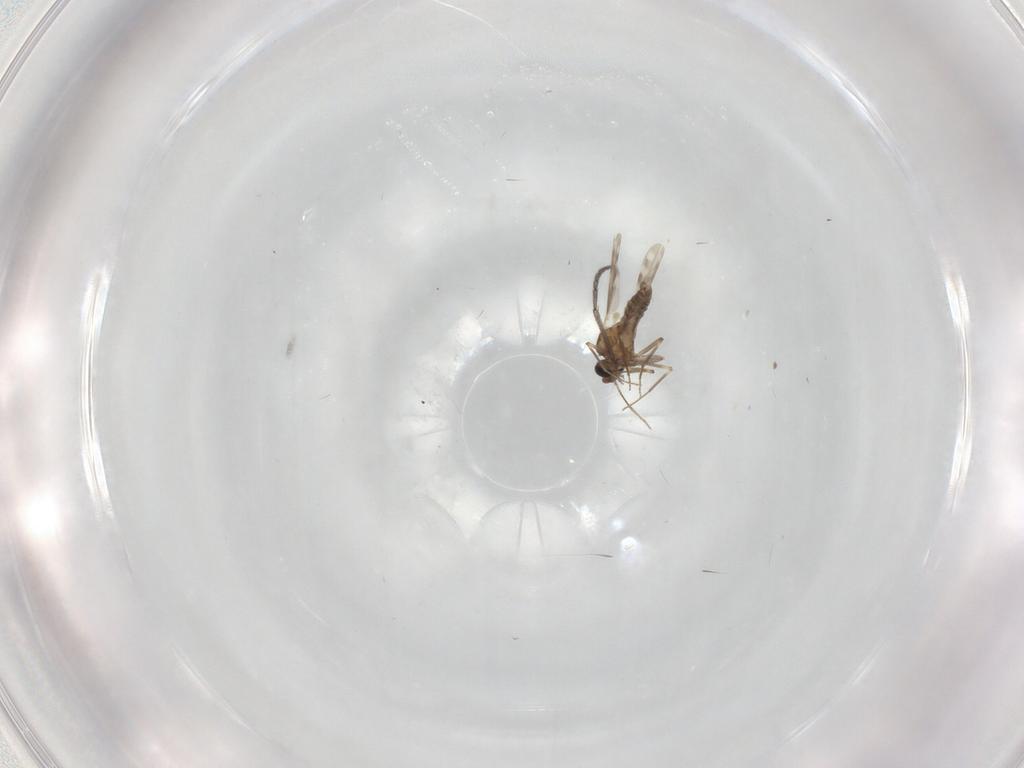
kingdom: Animalia
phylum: Arthropoda
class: Insecta
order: Diptera
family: Sciaridae
